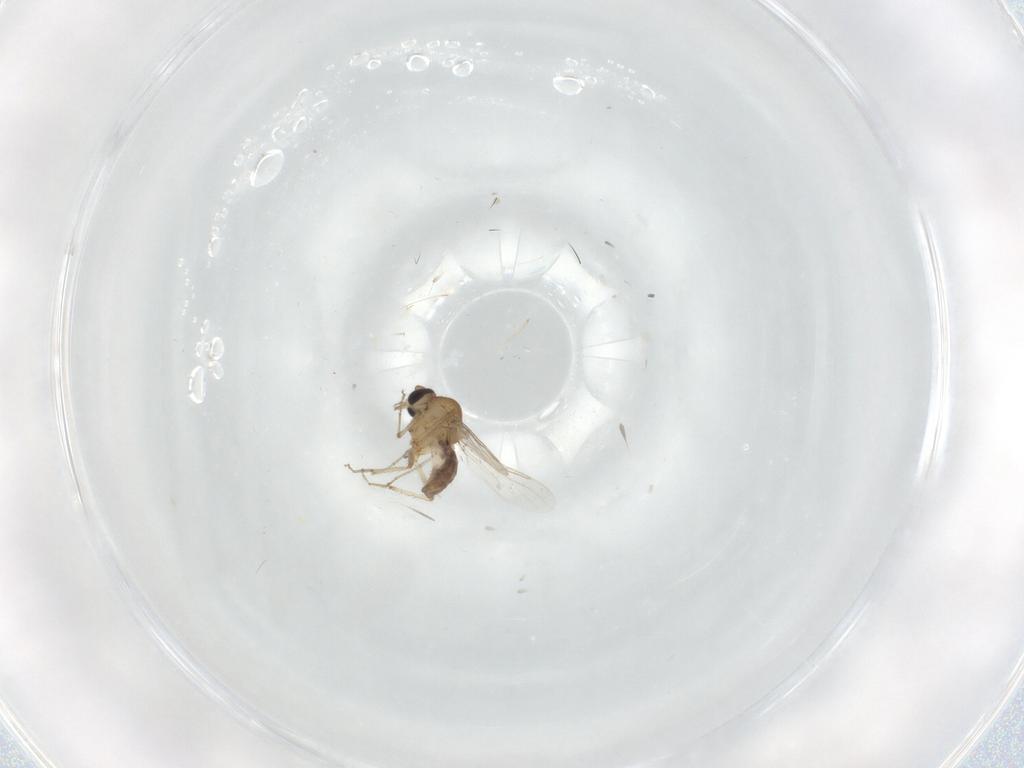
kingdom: Animalia
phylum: Arthropoda
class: Insecta
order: Diptera
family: Cecidomyiidae
